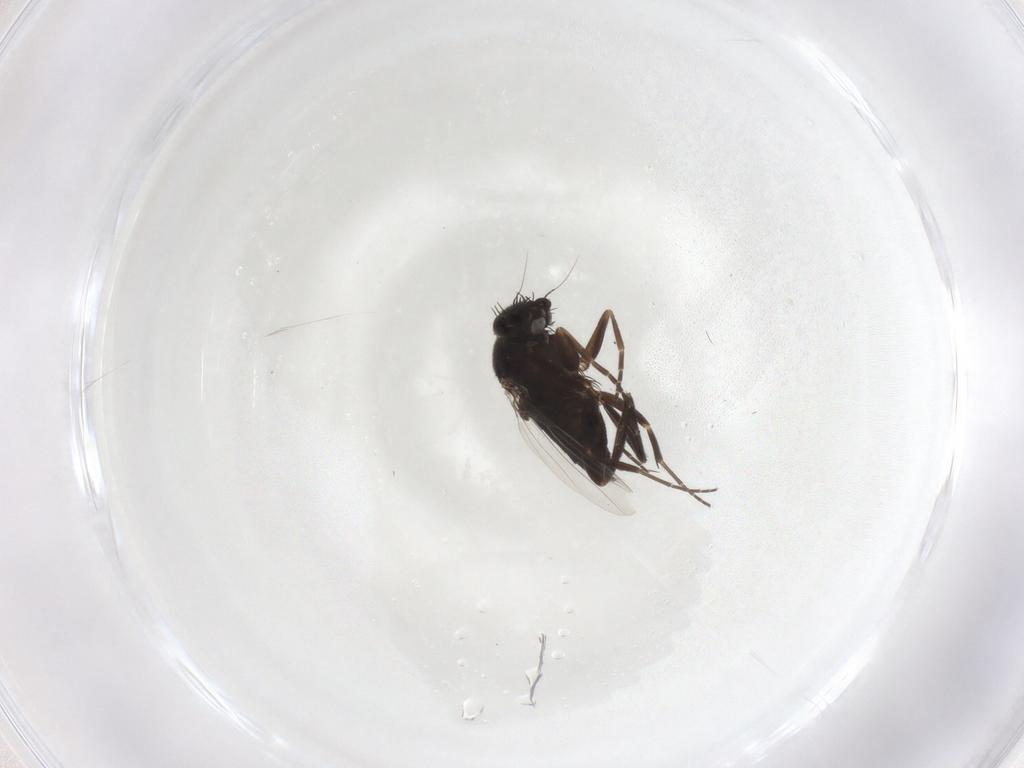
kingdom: Animalia
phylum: Arthropoda
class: Insecta
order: Diptera
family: Phoridae
